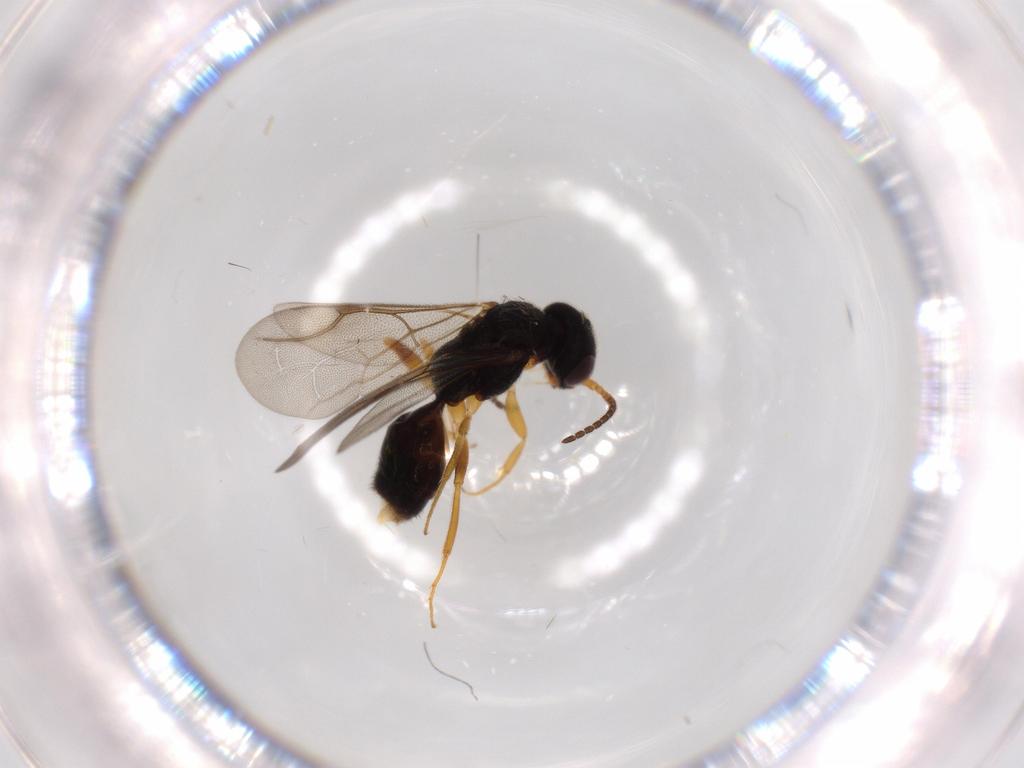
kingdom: Animalia
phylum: Arthropoda
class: Insecta
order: Hymenoptera
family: Bethylidae
